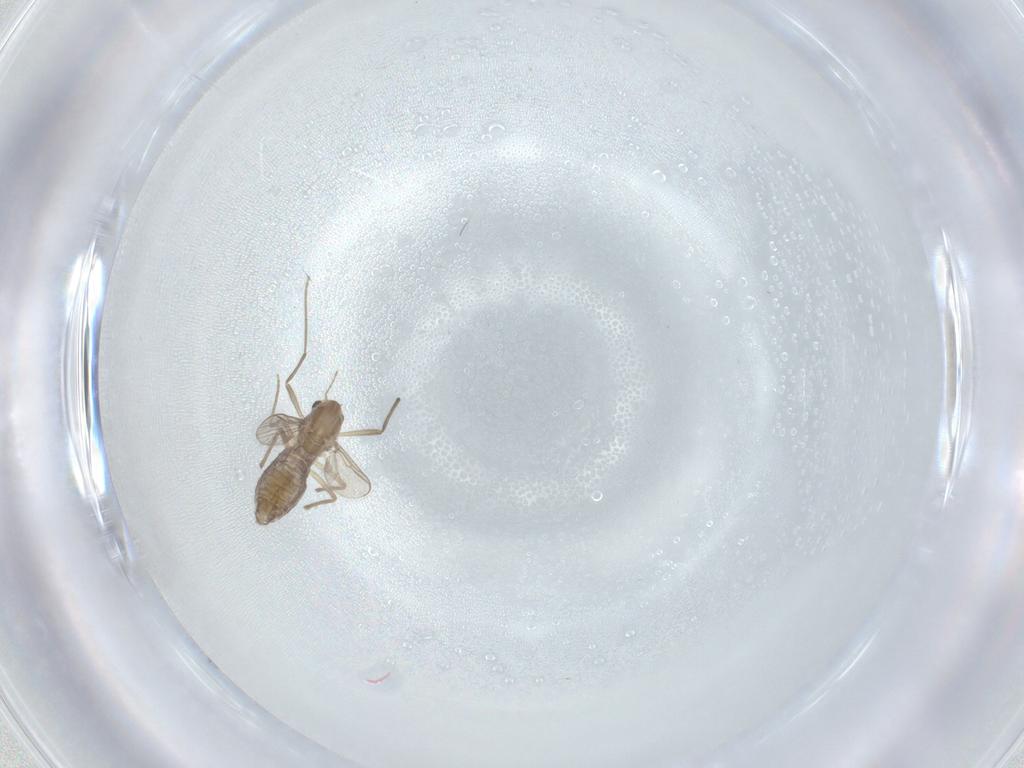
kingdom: Animalia
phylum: Arthropoda
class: Insecta
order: Diptera
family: Chironomidae
